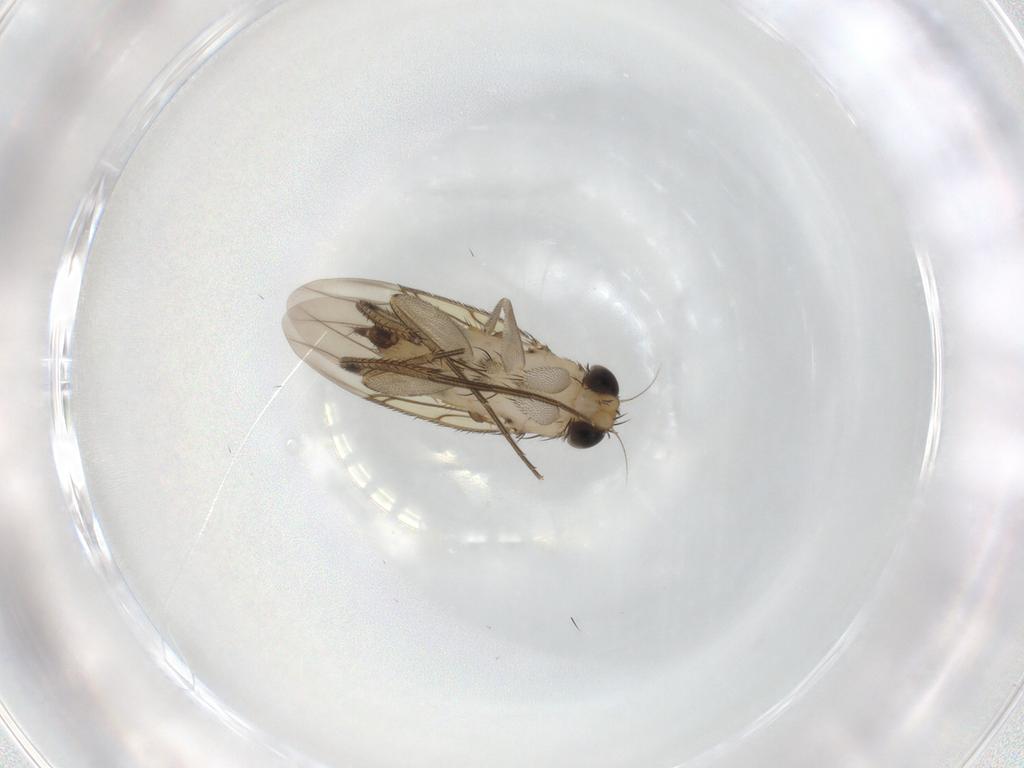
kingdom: Animalia
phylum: Arthropoda
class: Insecta
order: Diptera
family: Phoridae
